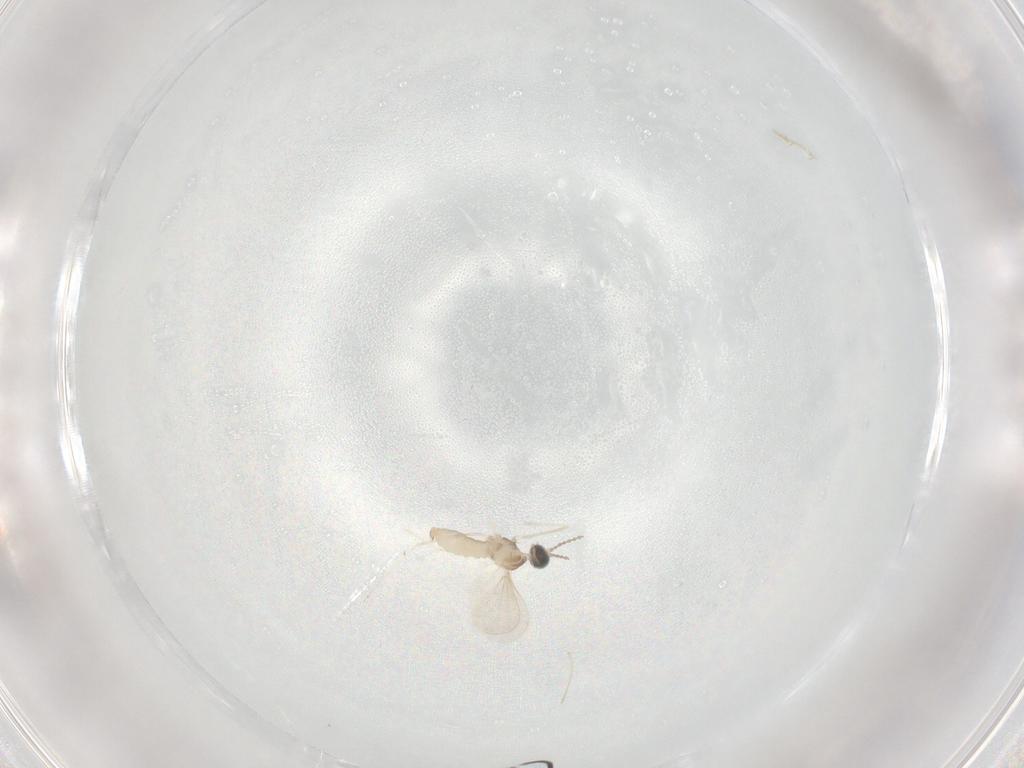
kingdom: Animalia
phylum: Arthropoda
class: Insecta
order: Diptera
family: Cecidomyiidae
